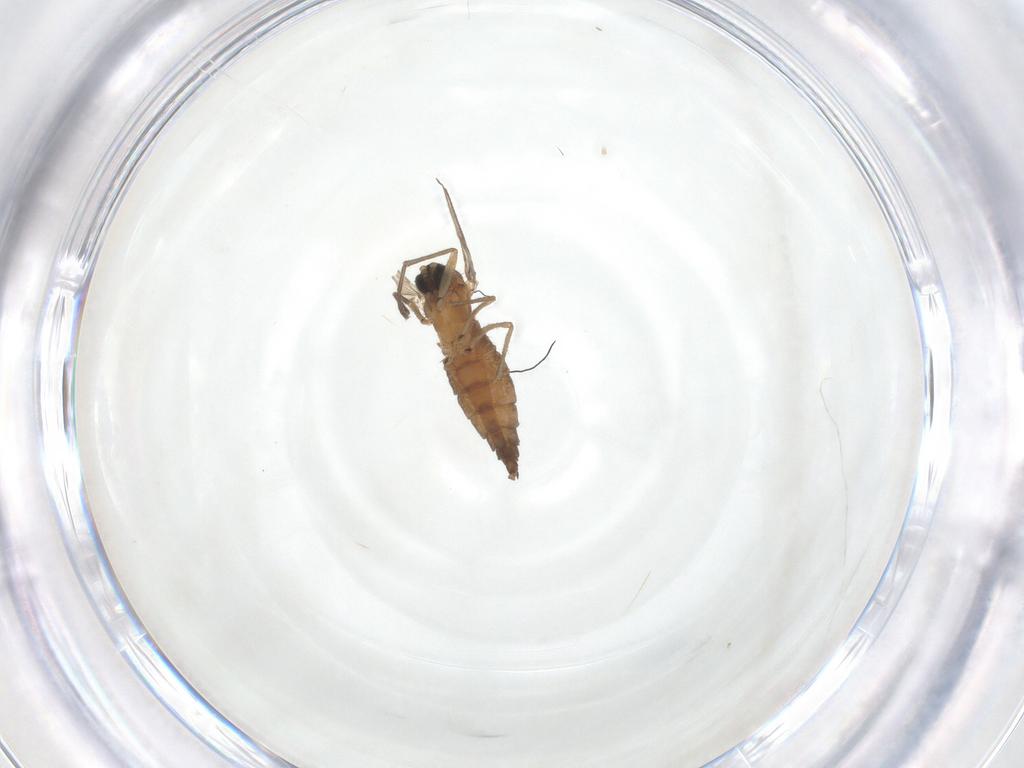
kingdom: Animalia
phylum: Arthropoda
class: Insecta
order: Diptera
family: Sciaridae
